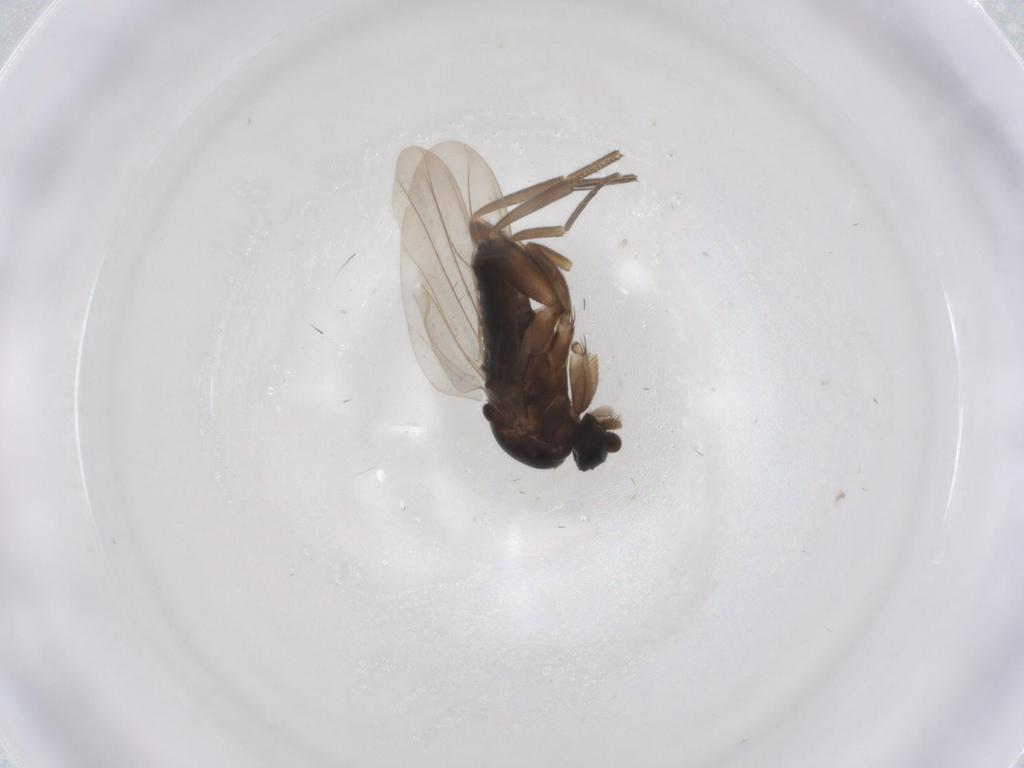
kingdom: Animalia
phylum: Arthropoda
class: Insecta
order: Diptera
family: Phoridae
